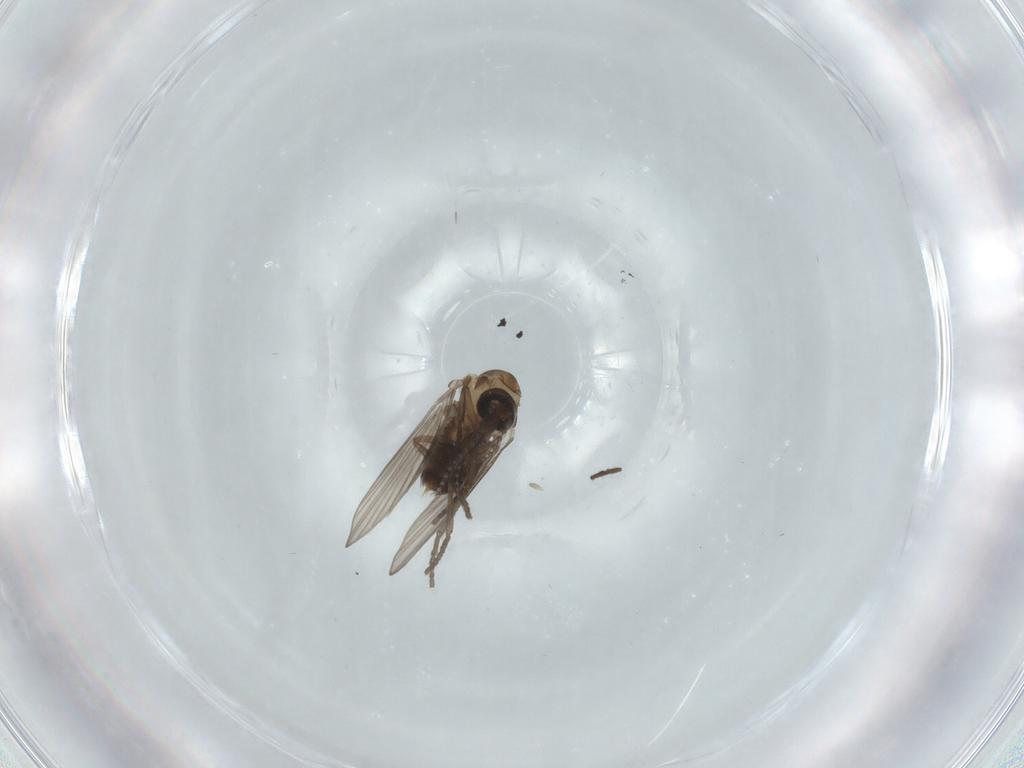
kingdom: Animalia
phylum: Arthropoda
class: Insecta
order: Diptera
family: Psychodidae
